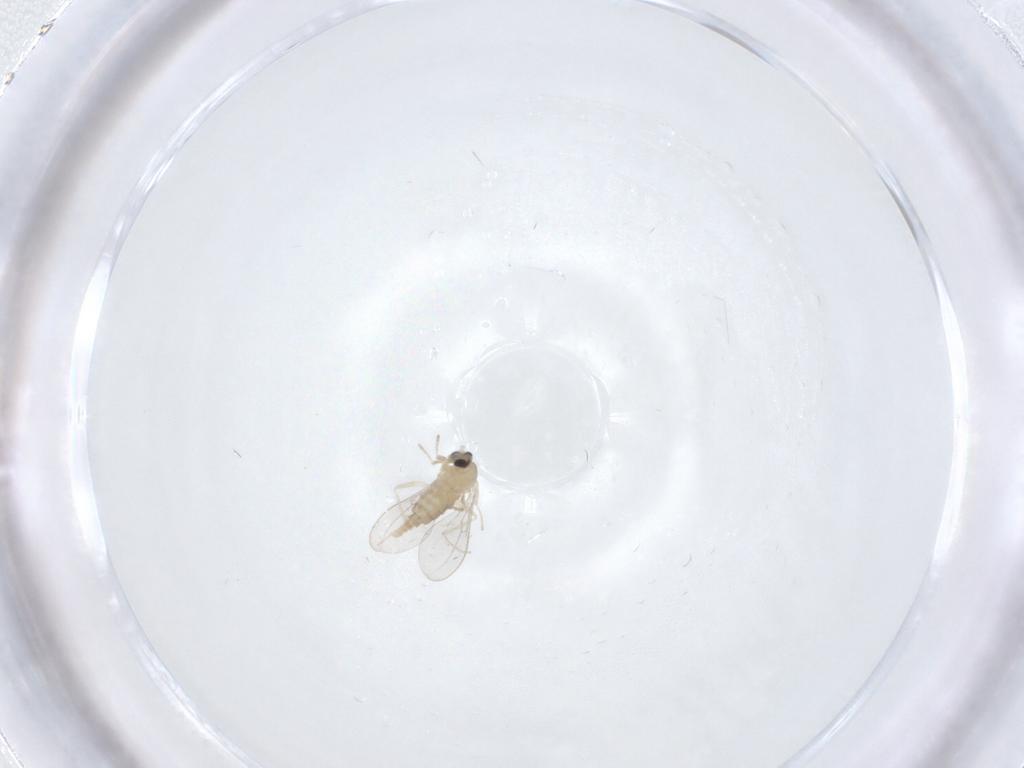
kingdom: Animalia
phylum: Arthropoda
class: Insecta
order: Diptera
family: Cecidomyiidae
